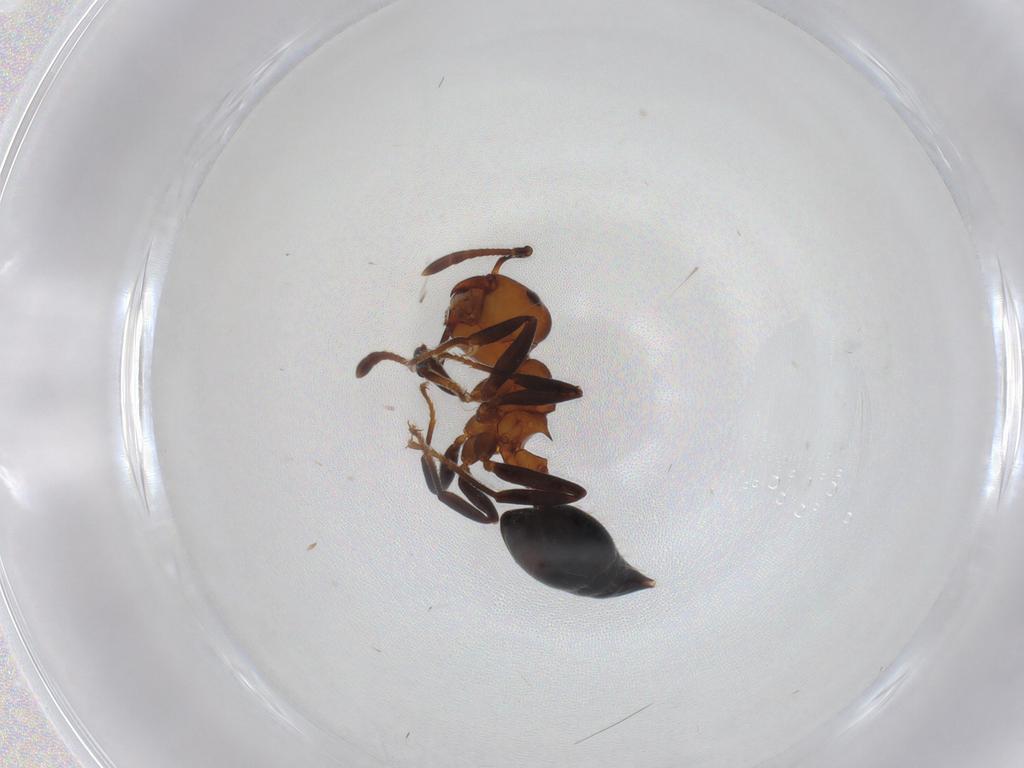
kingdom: Animalia
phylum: Arthropoda
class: Insecta
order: Hymenoptera
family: Formicidae
